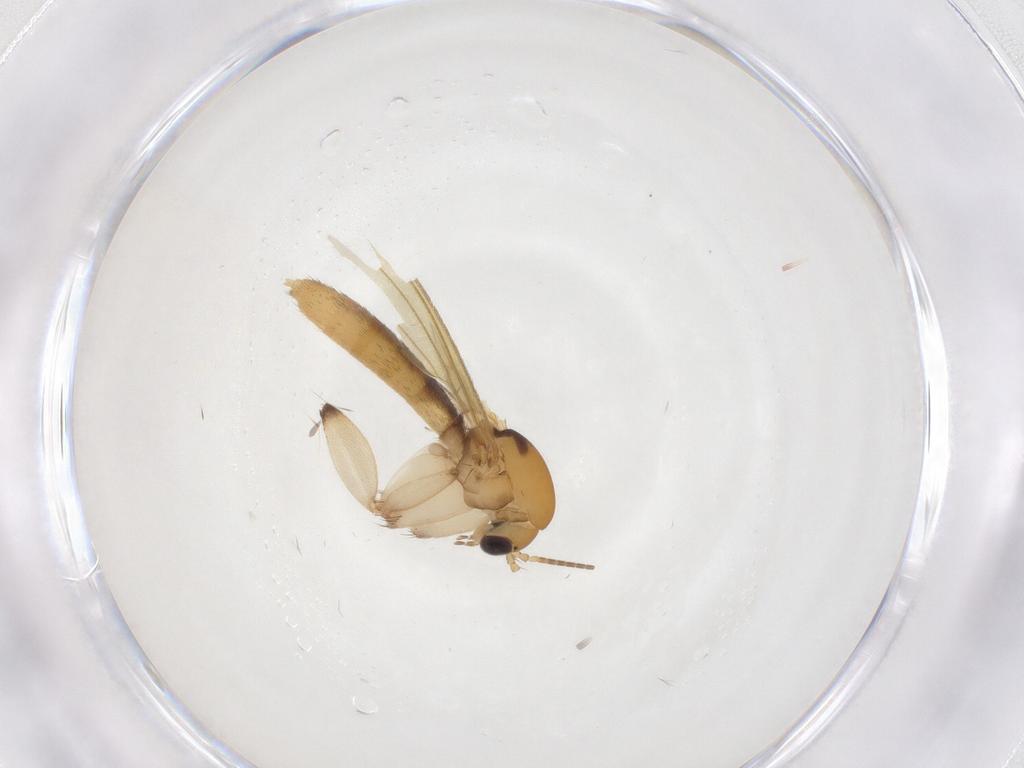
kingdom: Animalia
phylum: Arthropoda
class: Insecta
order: Diptera
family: Mycetophilidae
